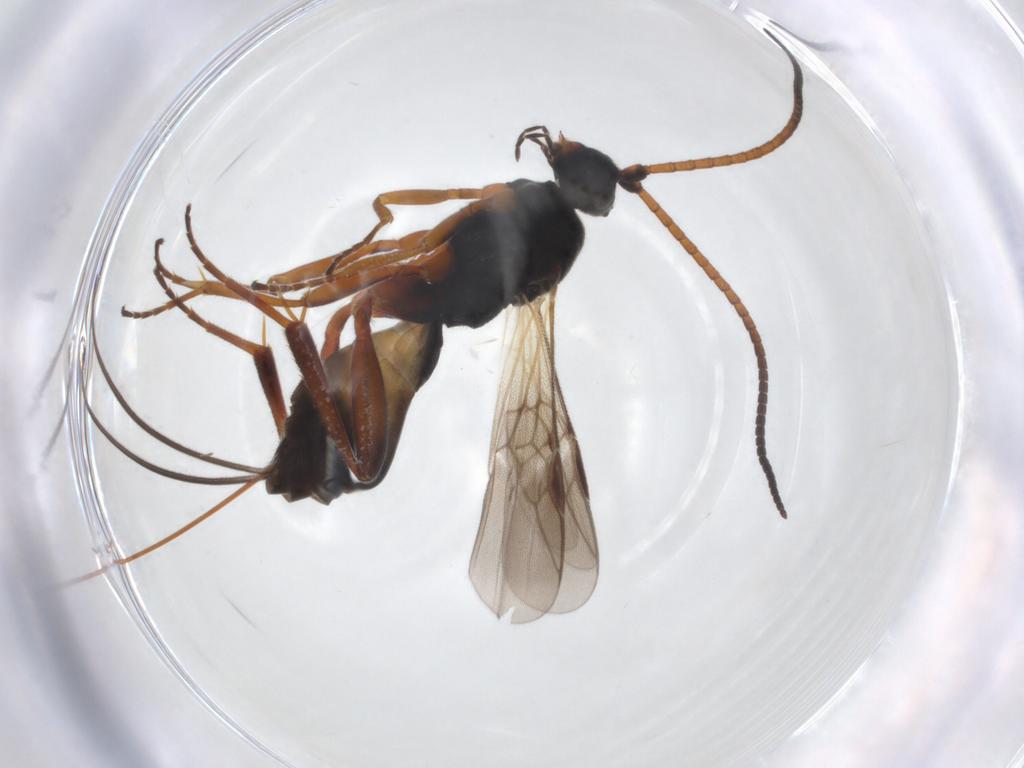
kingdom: Animalia
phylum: Arthropoda
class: Insecta
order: Hymenoptera
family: Braconidae
